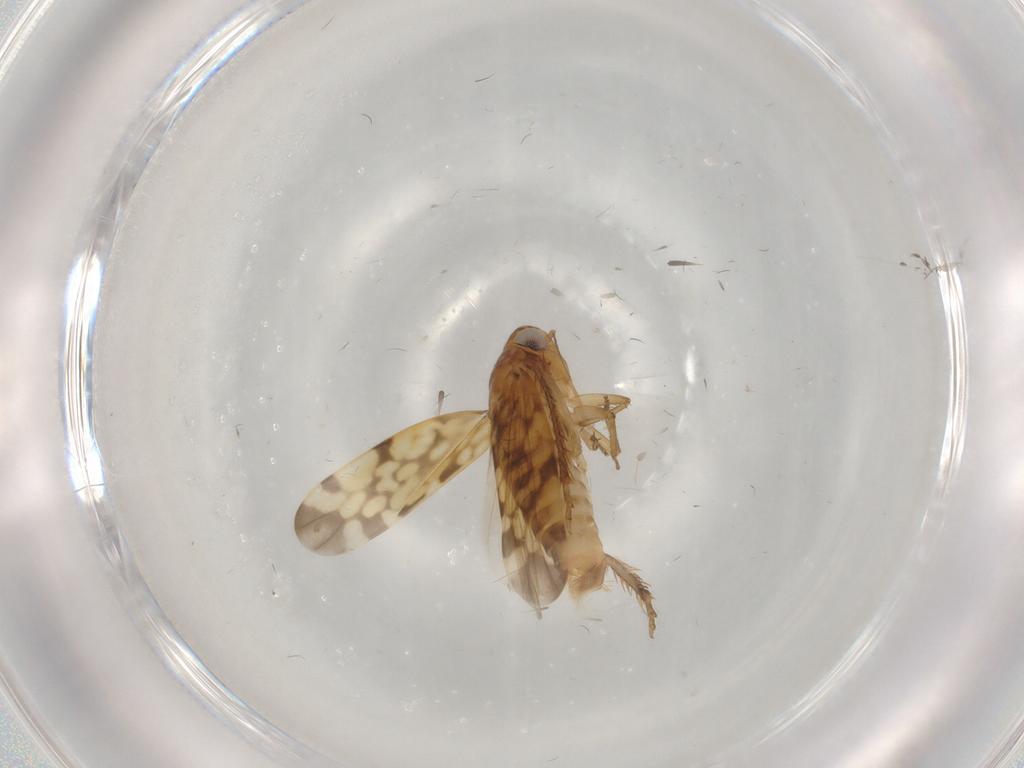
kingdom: Animalia
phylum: Arthropoda
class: Insecta
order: Hemiptera
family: Cicadellidae
